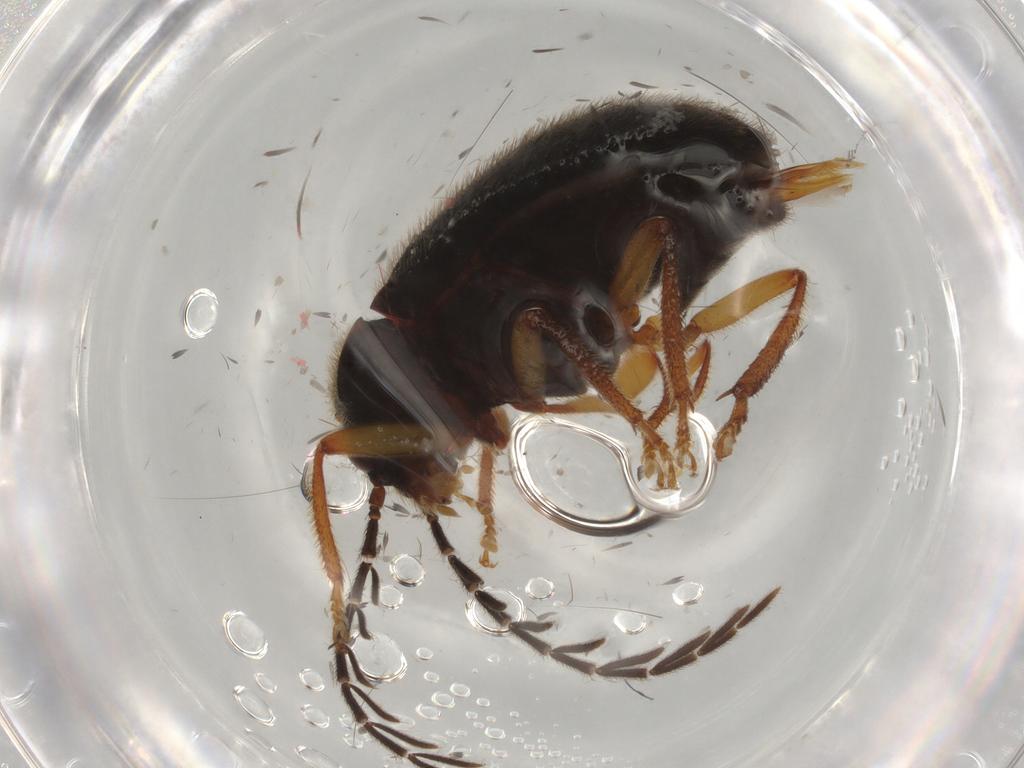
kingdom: Animalia
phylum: Arthropoda
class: Insecta
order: Coleoptera
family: Ptilodactylidae
